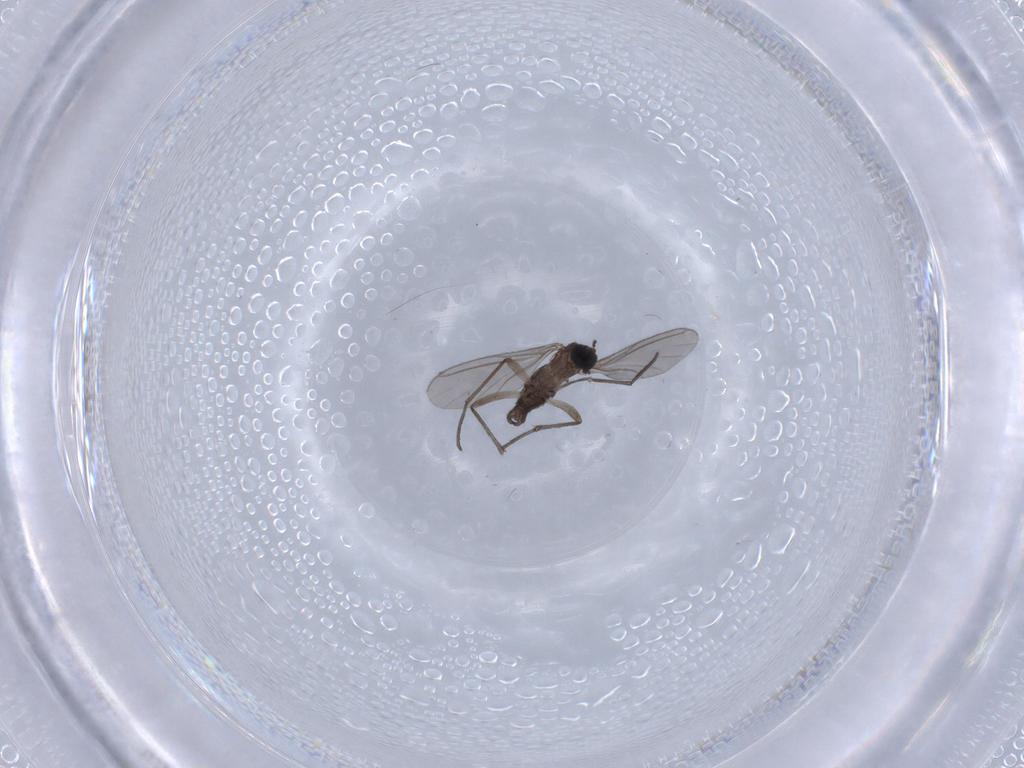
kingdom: Animalia
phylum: Arthropoda
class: Insecta
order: Diptera
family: Sciaridae
